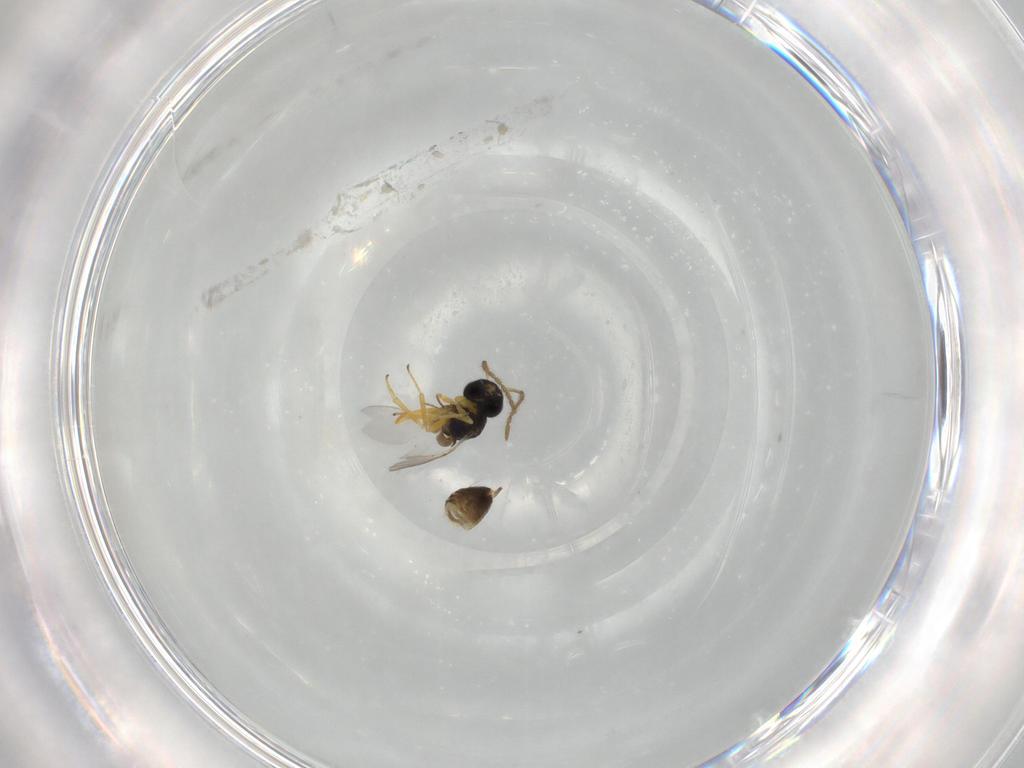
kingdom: Animalia
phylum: Arthropoda
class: Insecta
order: Hymenoptera
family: Encyrtidae
